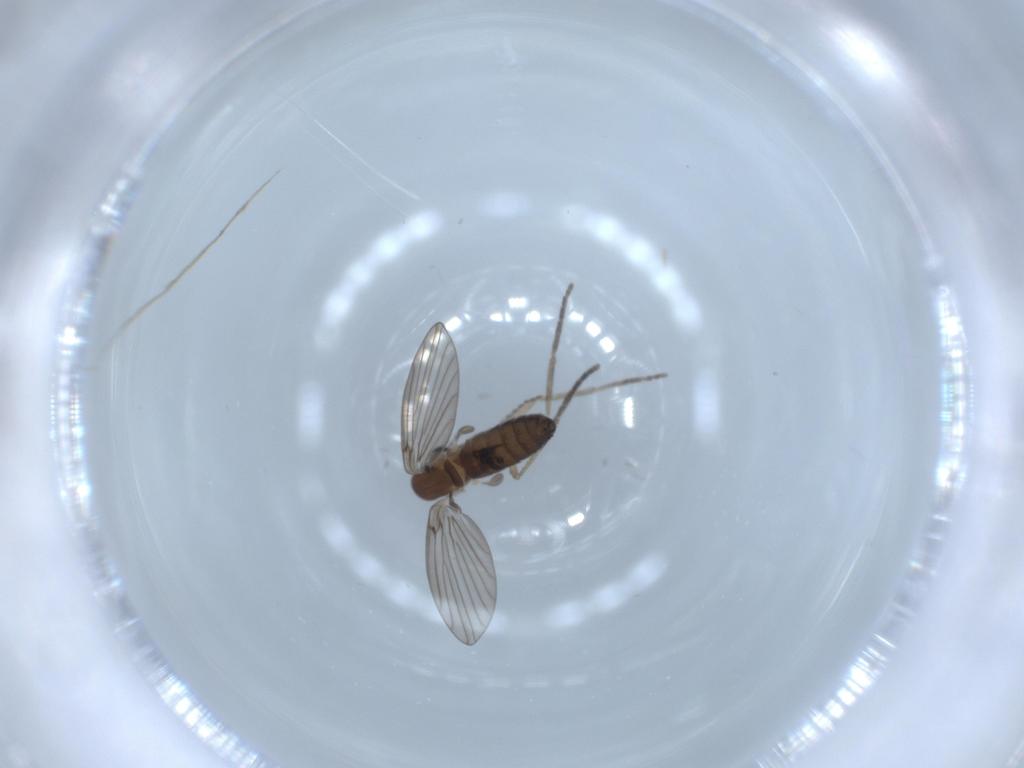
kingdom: Animalia
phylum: Arthropoda
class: Insecta
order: Diptera
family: Psychodidae
